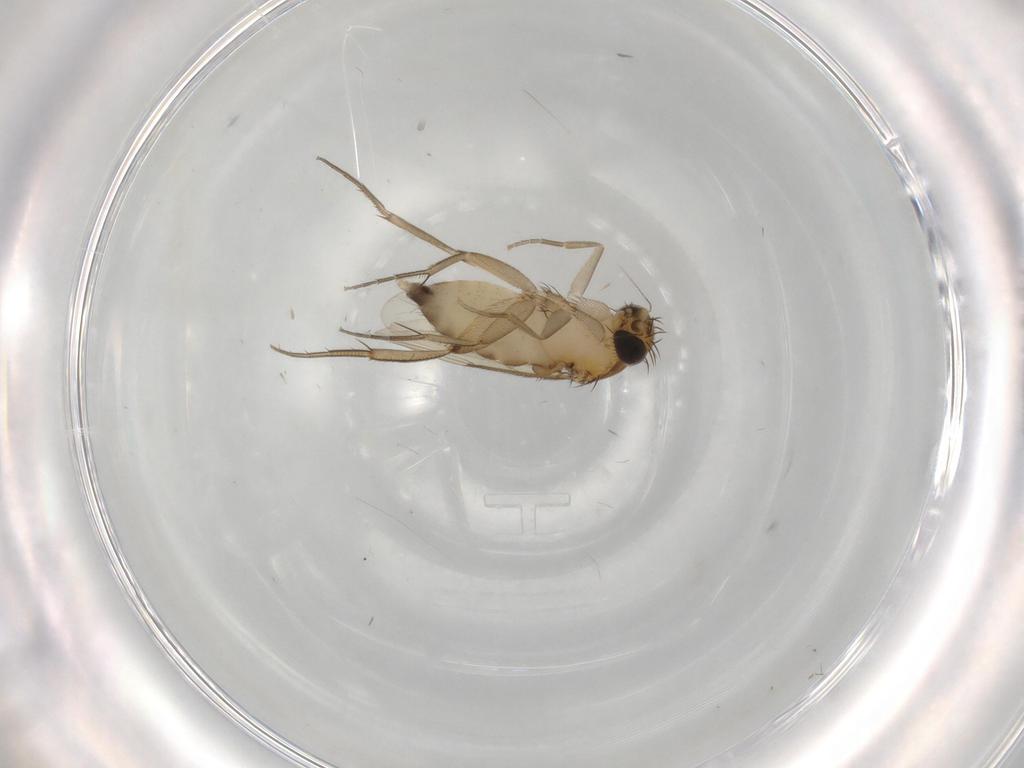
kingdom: Animalia
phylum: Arthropoda
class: Insecta
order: Diptera
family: Phoridae
